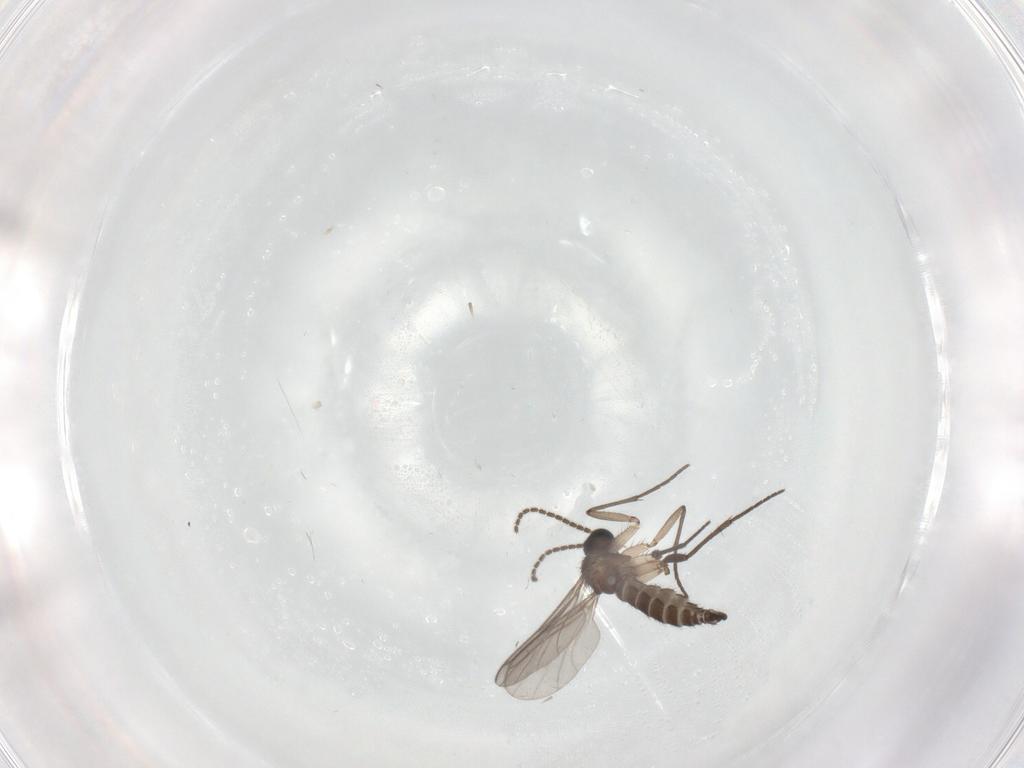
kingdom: Animalia
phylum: Arthropoda
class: Insecta
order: Diptera
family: Sciaridae
